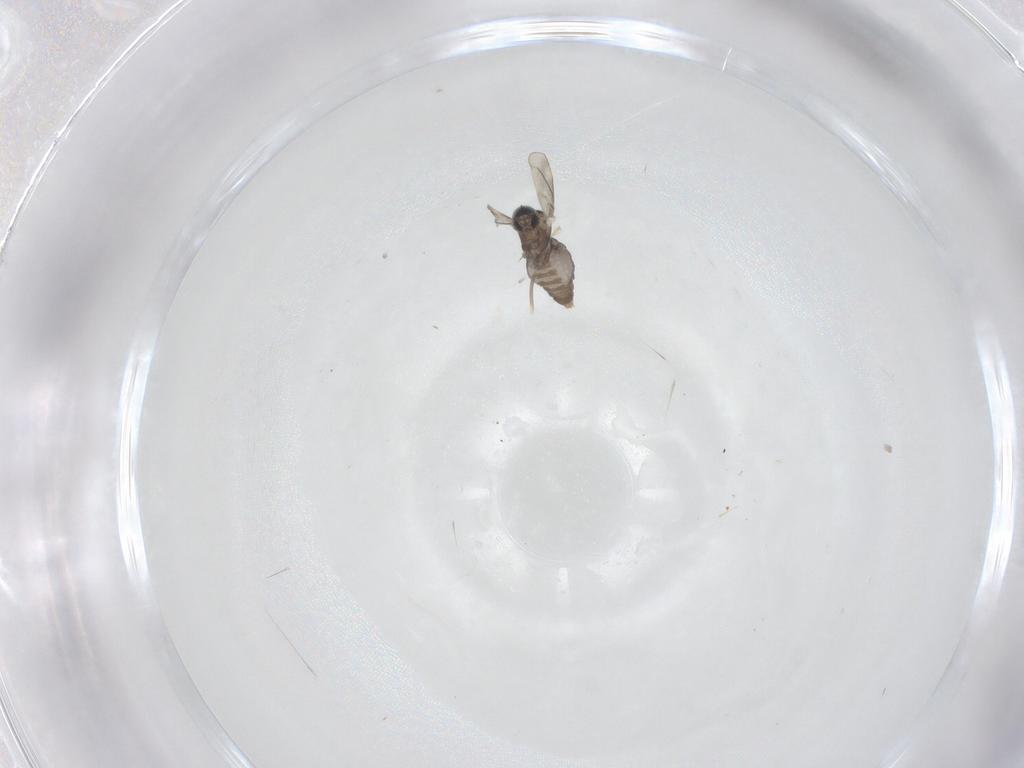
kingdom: Animalia
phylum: Arthropoda
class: Insecta
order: Diptera
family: Cecidomyiidae
